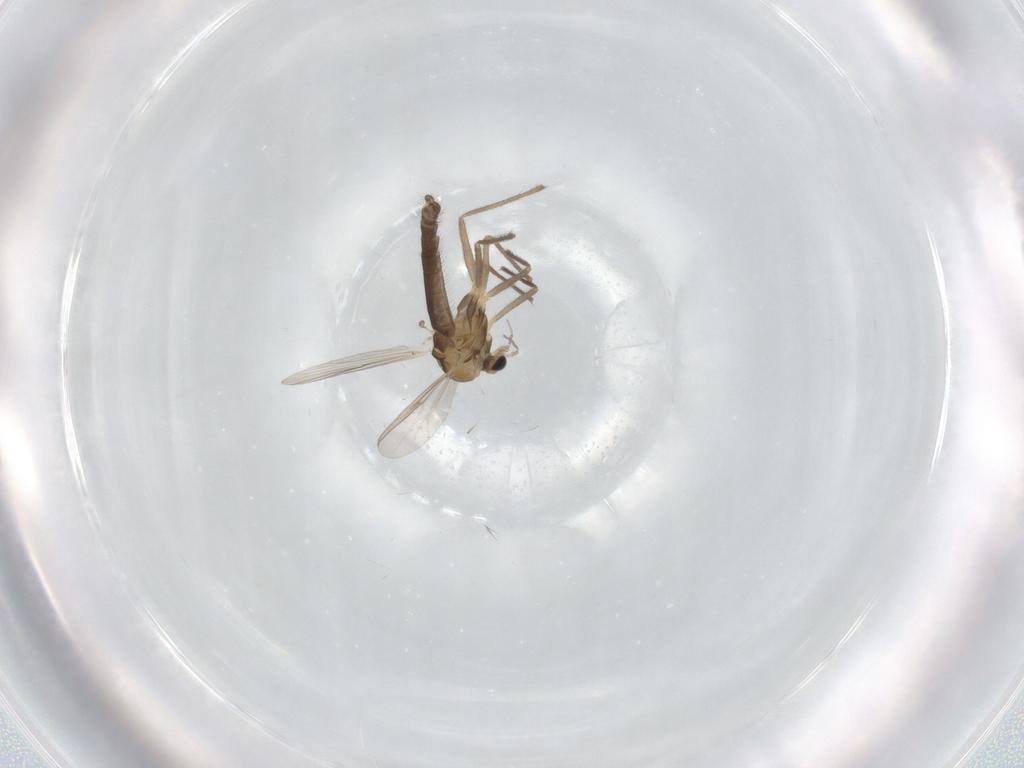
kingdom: Animalia
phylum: Arthropoda
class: Insecta
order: Diptera
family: Chironomidae
